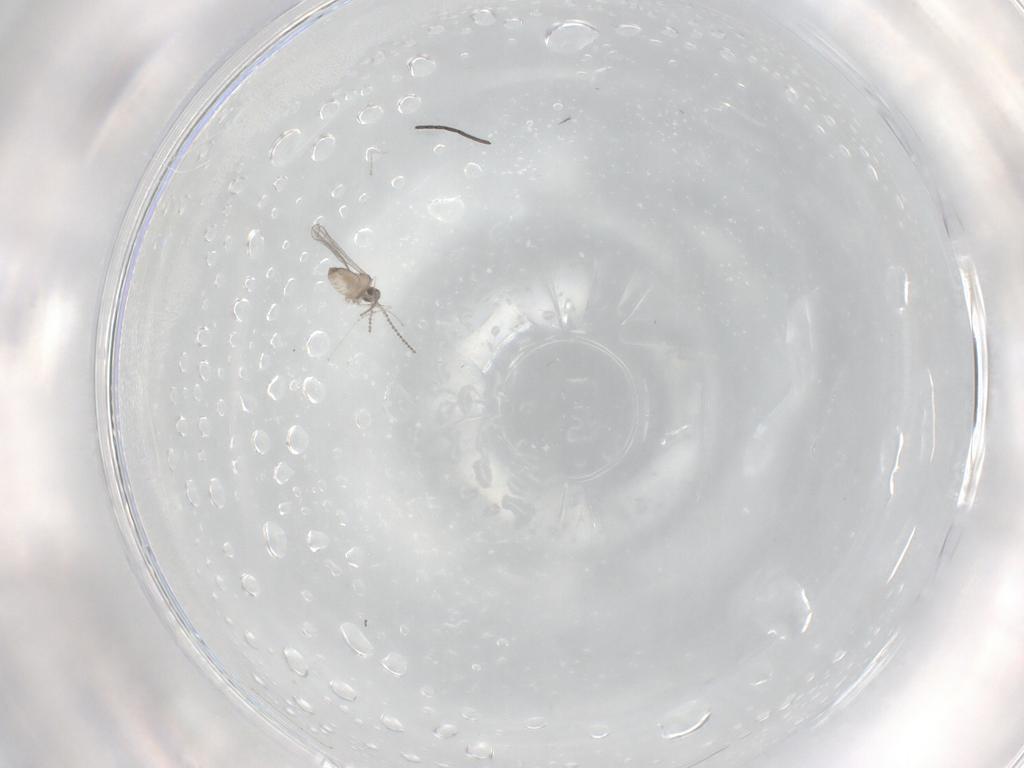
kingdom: Animalia
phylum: Arthropoda
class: Insecta
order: Diptera
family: Cecidomyiidae
